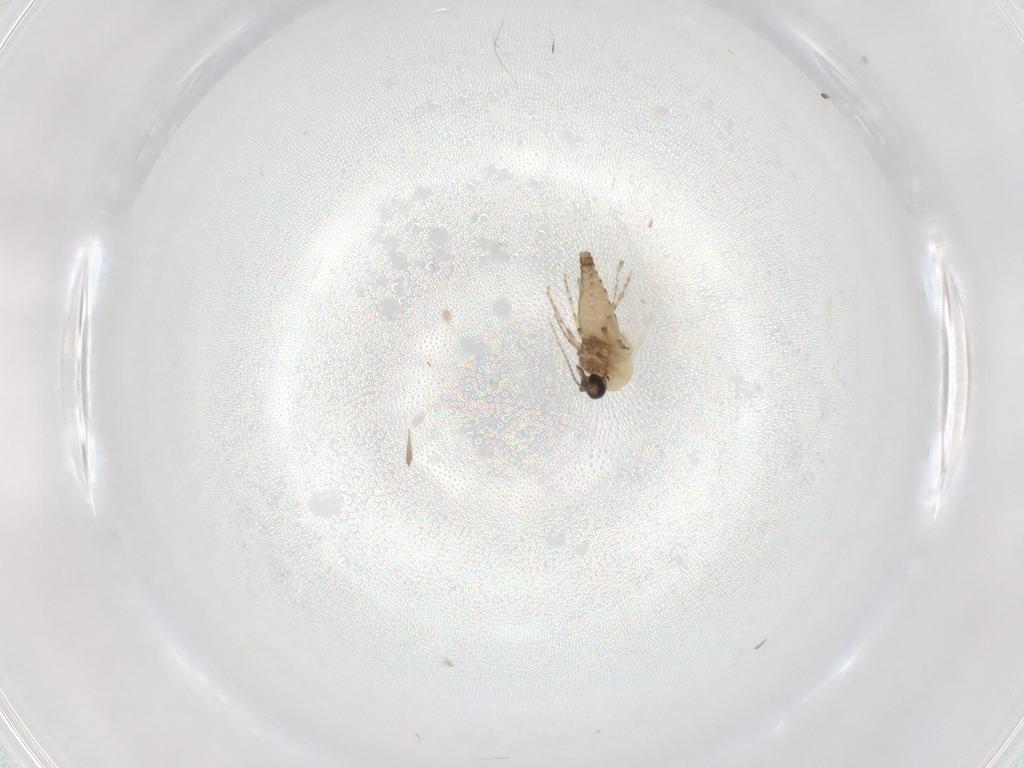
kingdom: Animalia
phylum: Arthropoda
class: Insecta
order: Diptera
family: Ceratopogonidae
